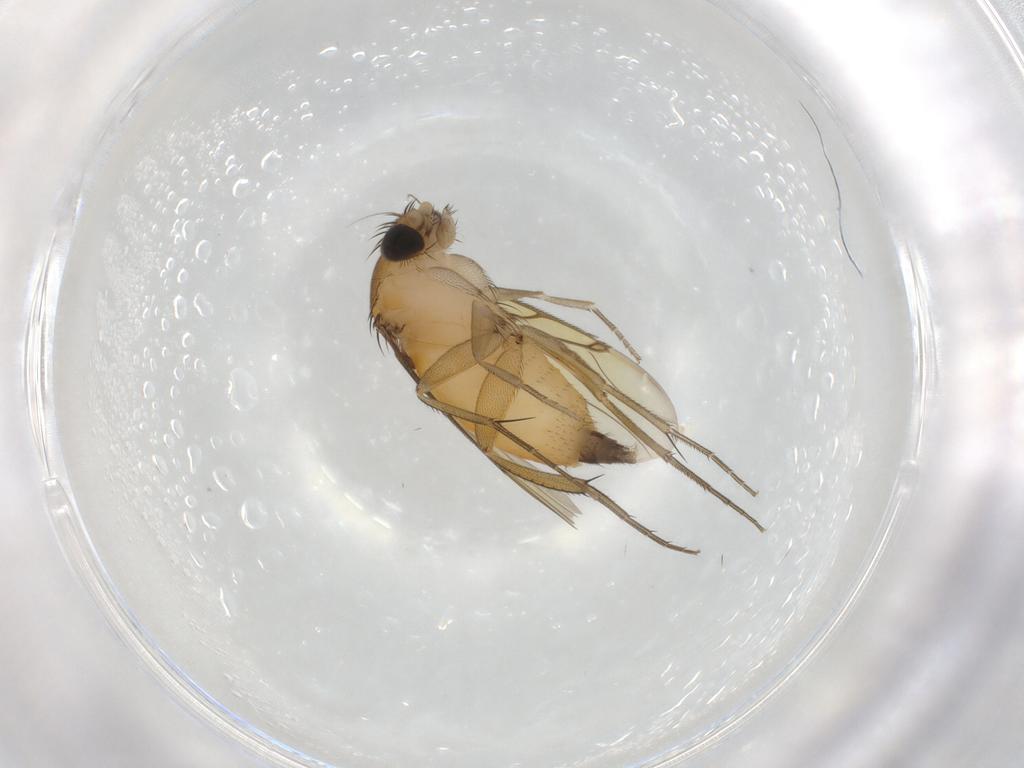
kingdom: Animalia
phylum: Arthropoda
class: Insecta
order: Diptera
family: Phoridae
